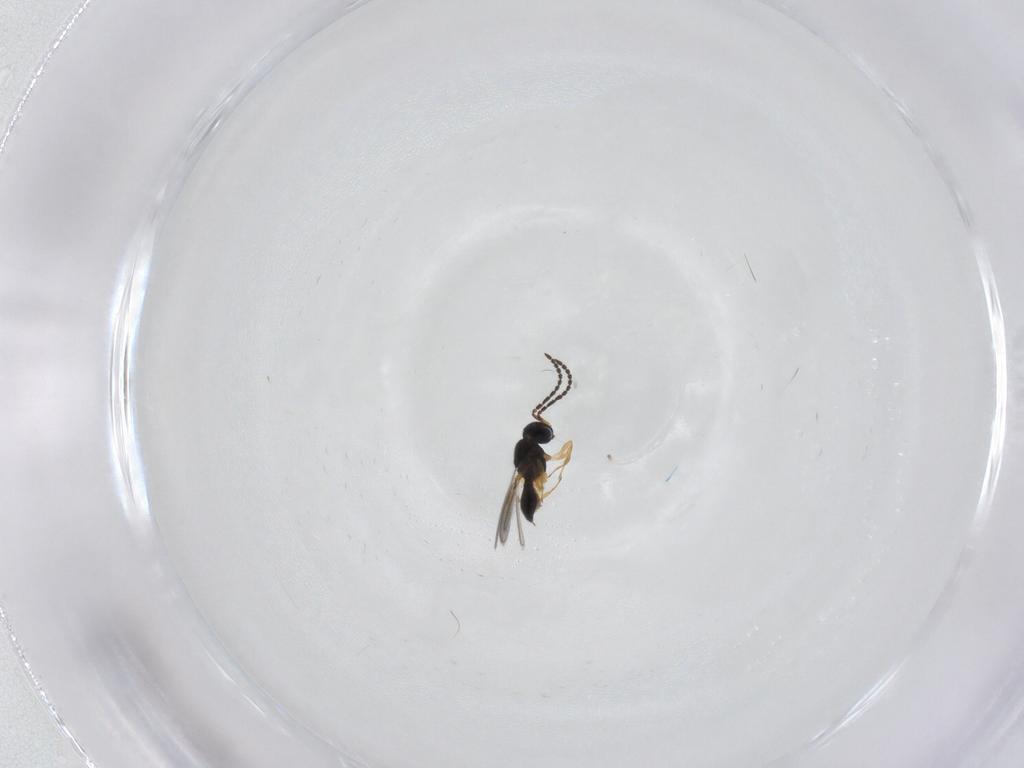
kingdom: Animalia
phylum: Arthropoda
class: Insecta
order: Hymenoptera
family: Scelionidae
